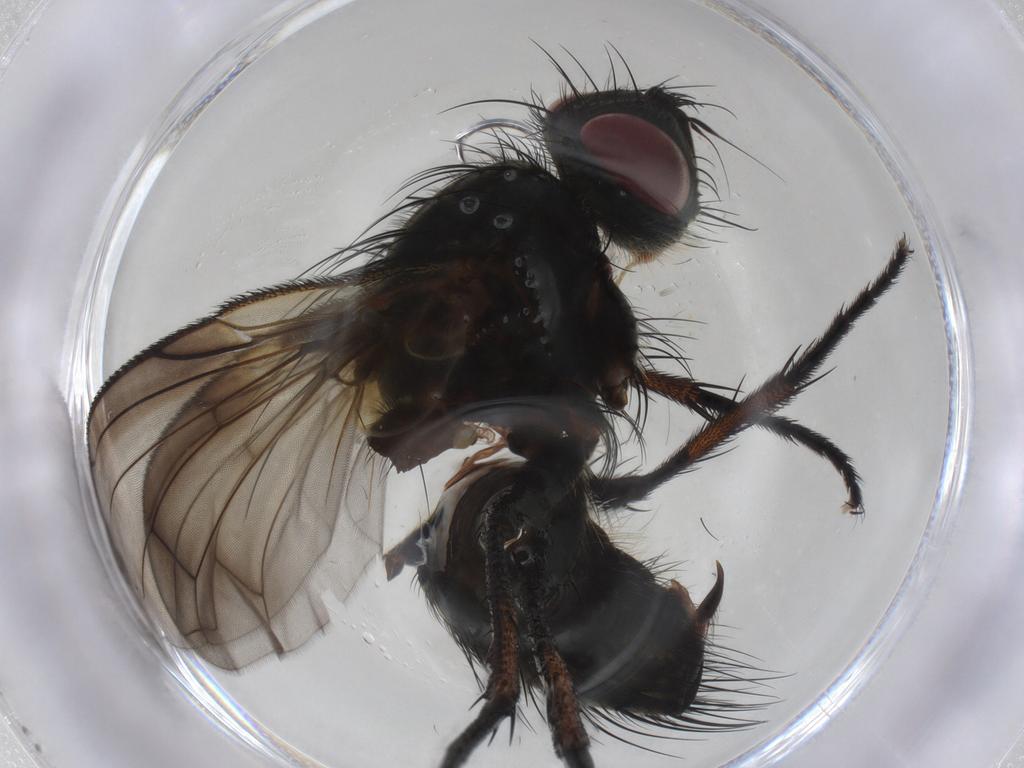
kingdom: Animalia
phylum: Arthropoda
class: Insecta
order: Diptera
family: Tachinidae
